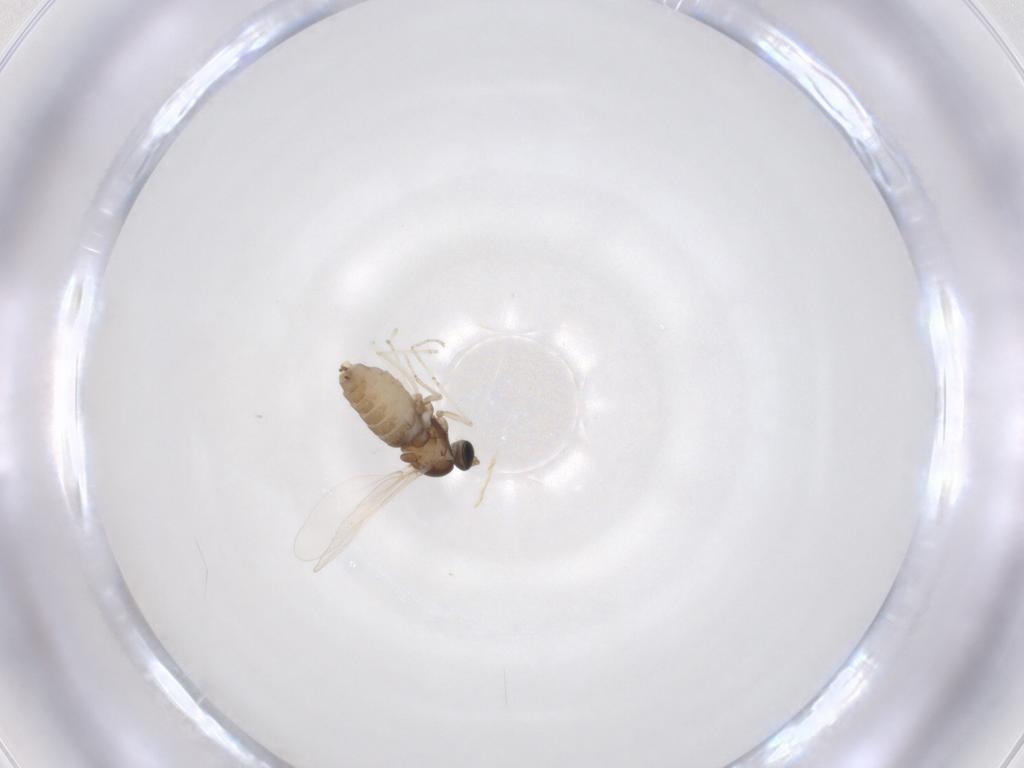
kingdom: Animalia
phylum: Arthropoda
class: Insecta
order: Diptera
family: Cecidomyiidae
